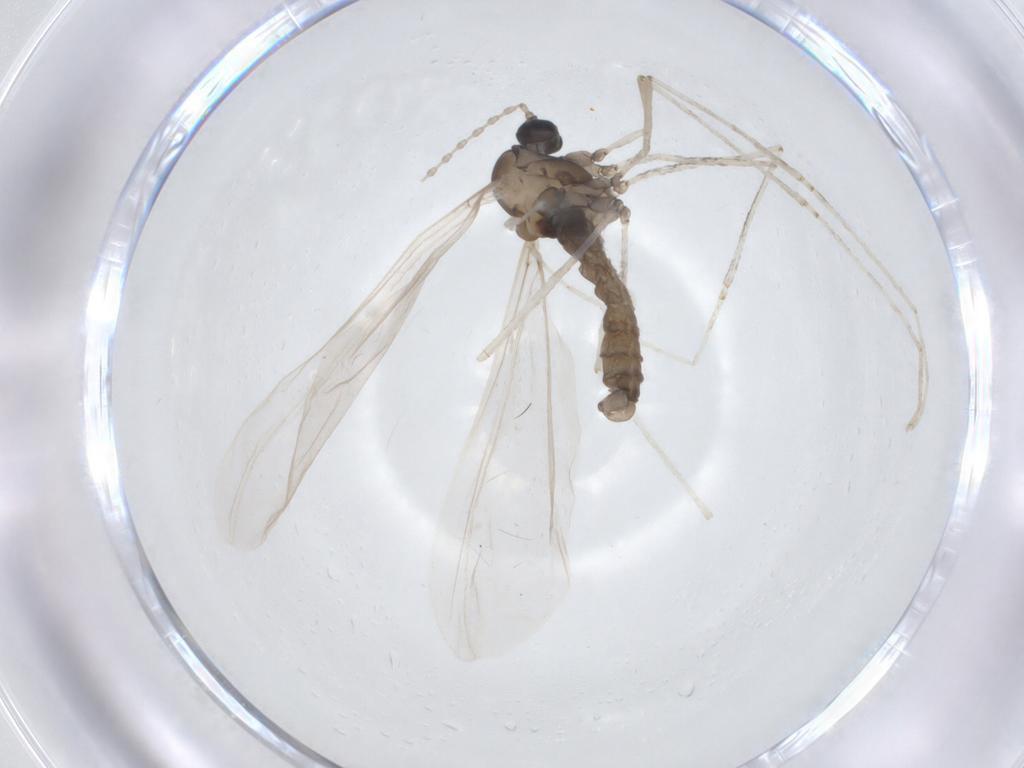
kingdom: Animalia
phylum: Arthropoda
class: Insecta
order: Diptera
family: Cecidomyiidae
